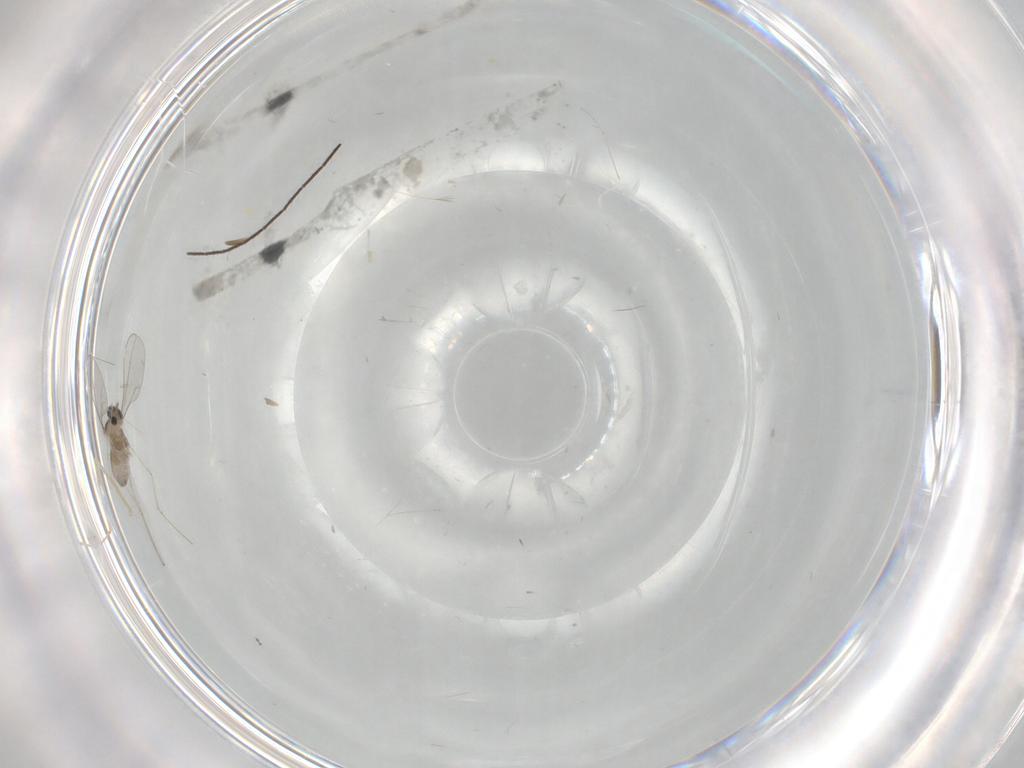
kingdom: Animalia
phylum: Arthropoda
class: Insecta
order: Diptera
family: Cecidomyiidae
